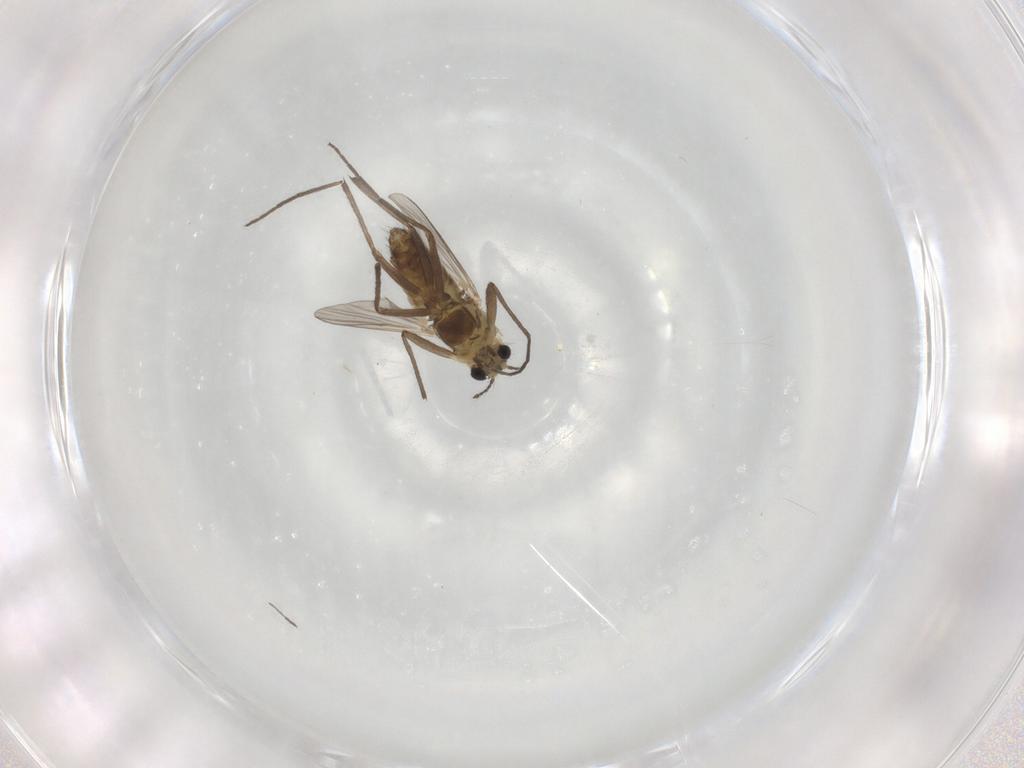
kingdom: Animalia
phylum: Arthropoda
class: Insecta
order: Diptera
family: Chironomidae
